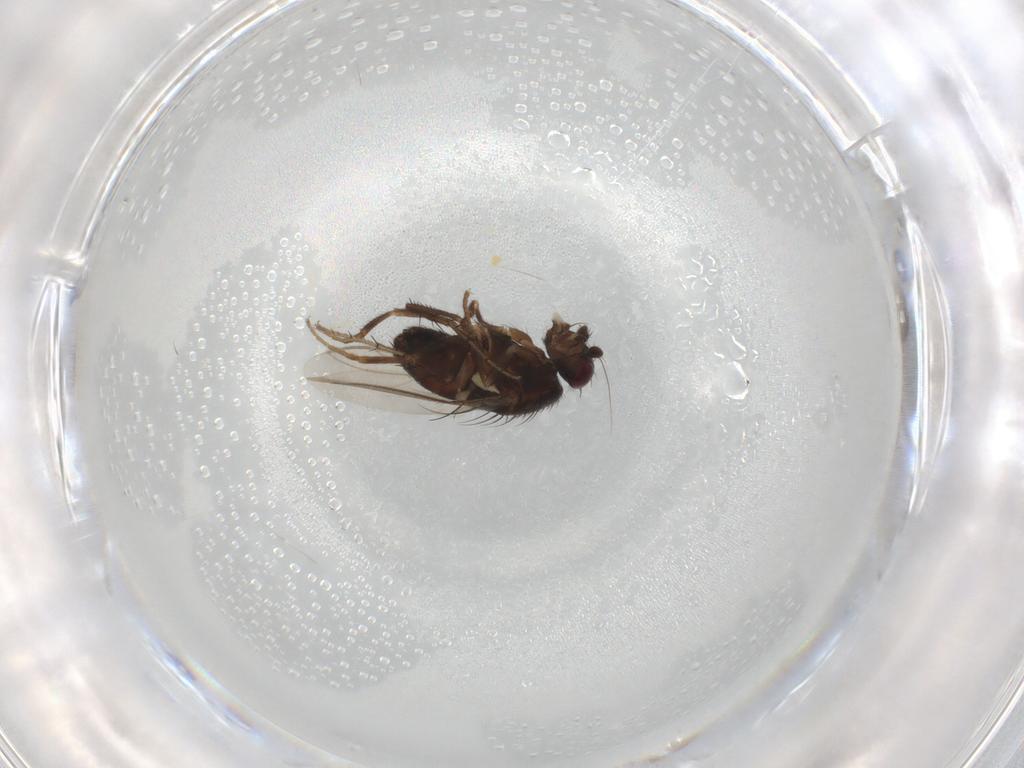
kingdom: Animalia
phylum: Arthropoda
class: Insecta
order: Diptera
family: Sphaeroceridae
